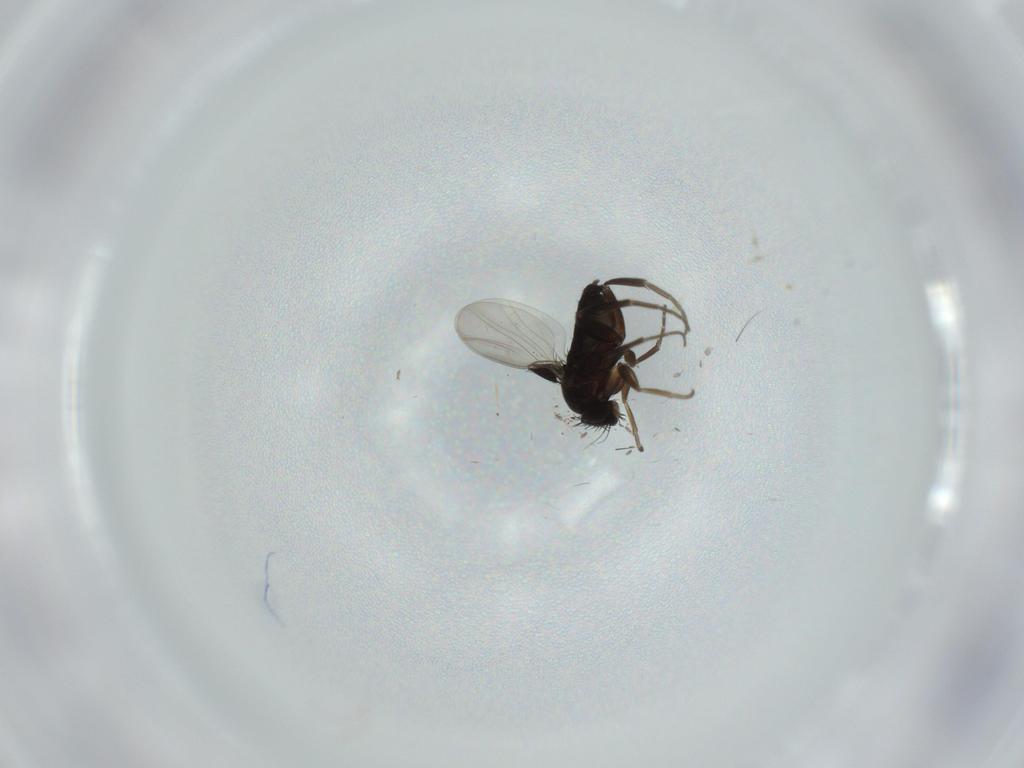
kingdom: Animalia
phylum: Arthropoda
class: Insecta
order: Diptera
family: Phoridae
